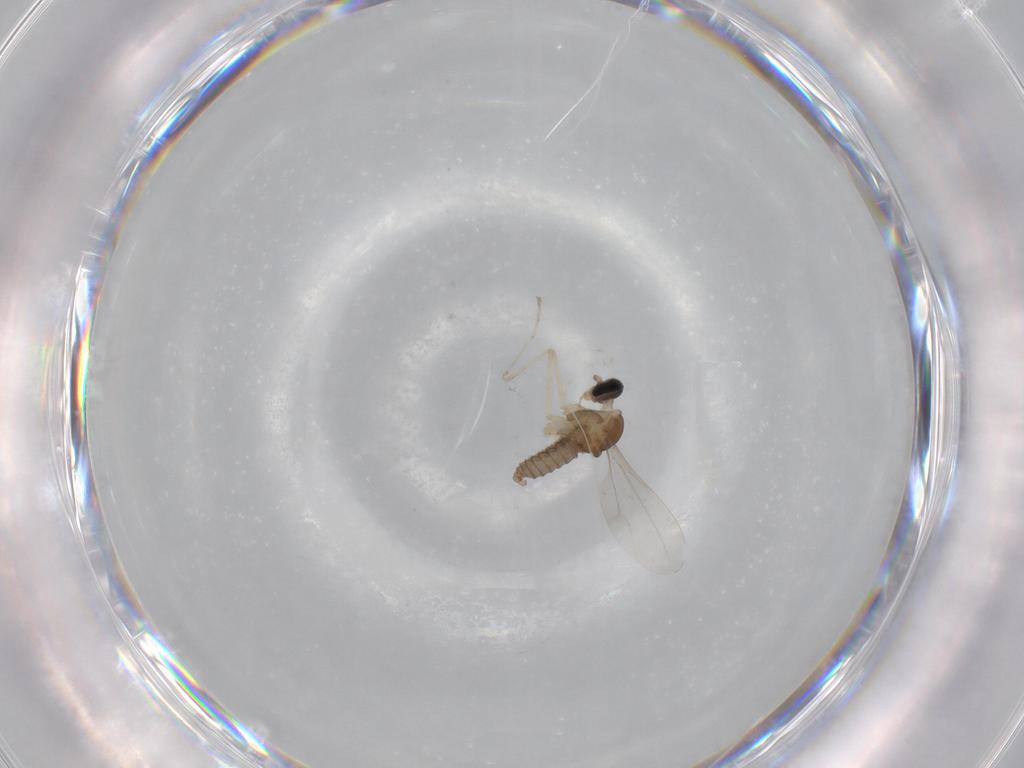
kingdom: Animalia
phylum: Arthropoda
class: Insecta
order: Diptera
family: Cecidomyiidae
